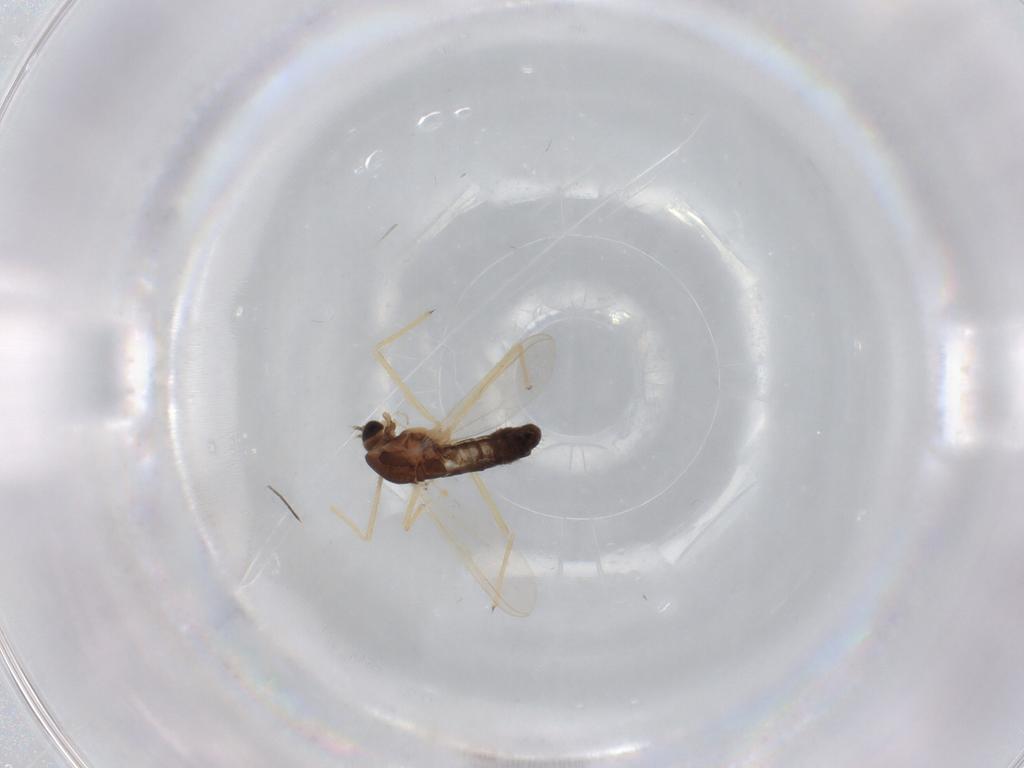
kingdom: Animalia
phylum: Arthropoda
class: Insecta
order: Diptera
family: Chironomidae
